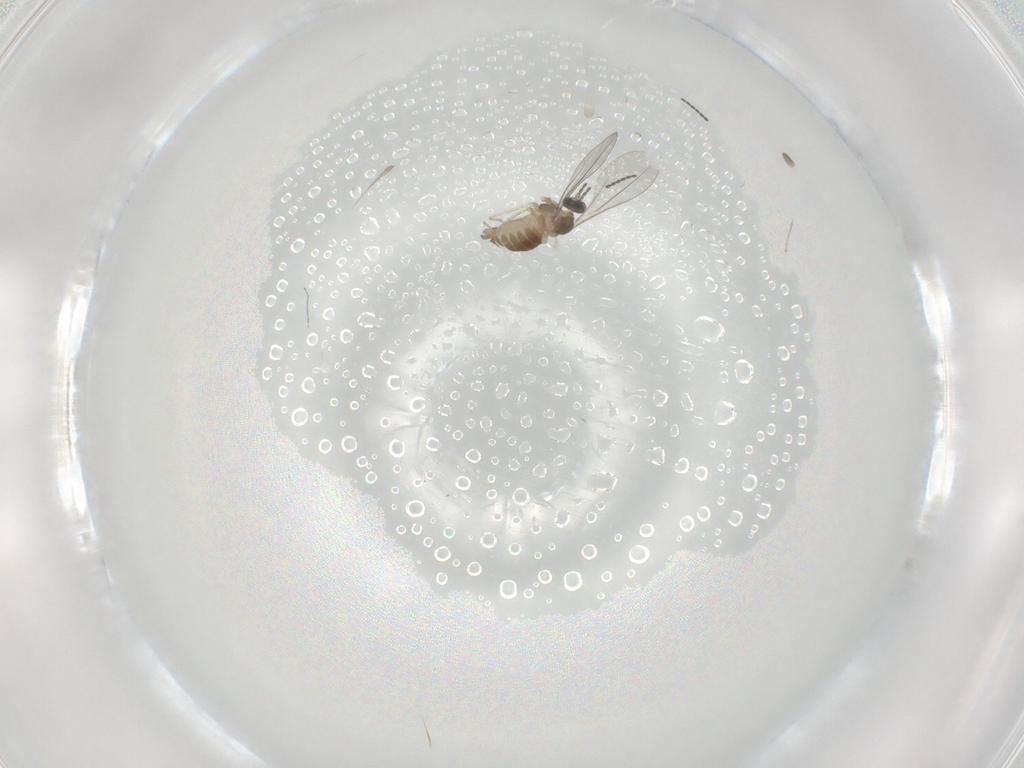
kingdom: Animalia
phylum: Arthropoda
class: Insecta
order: Diptera
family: Cecidomyiidae
